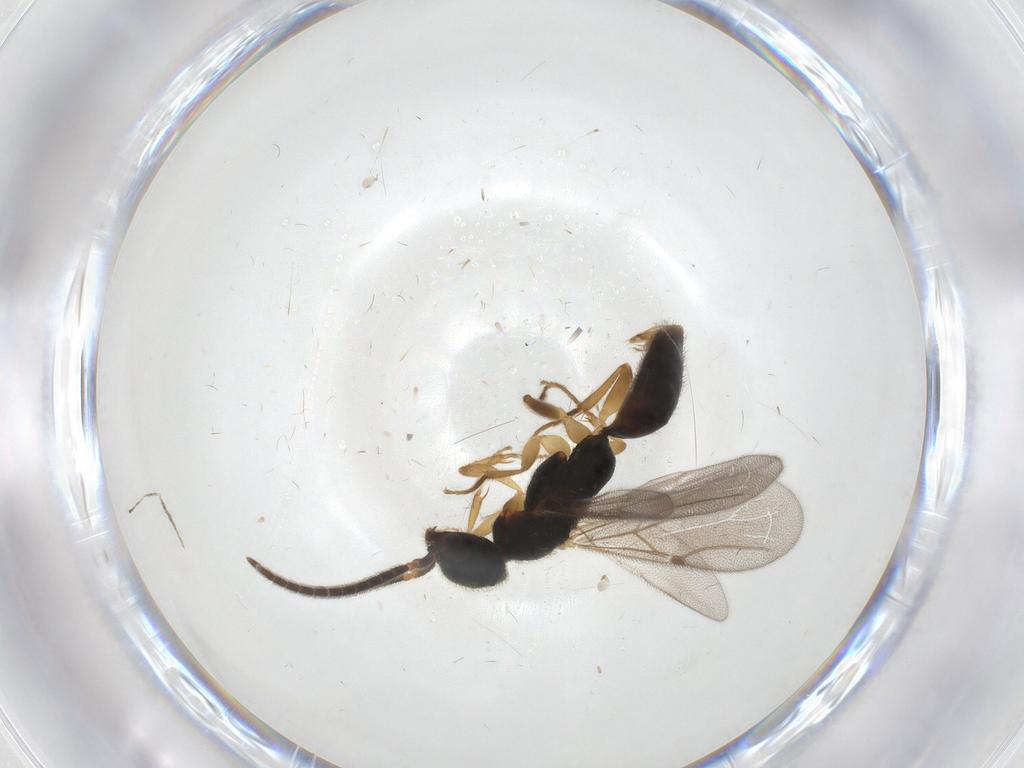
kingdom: Animalia
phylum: Arthropoda
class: Insecta
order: Hymenoptera
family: Bethylidae
